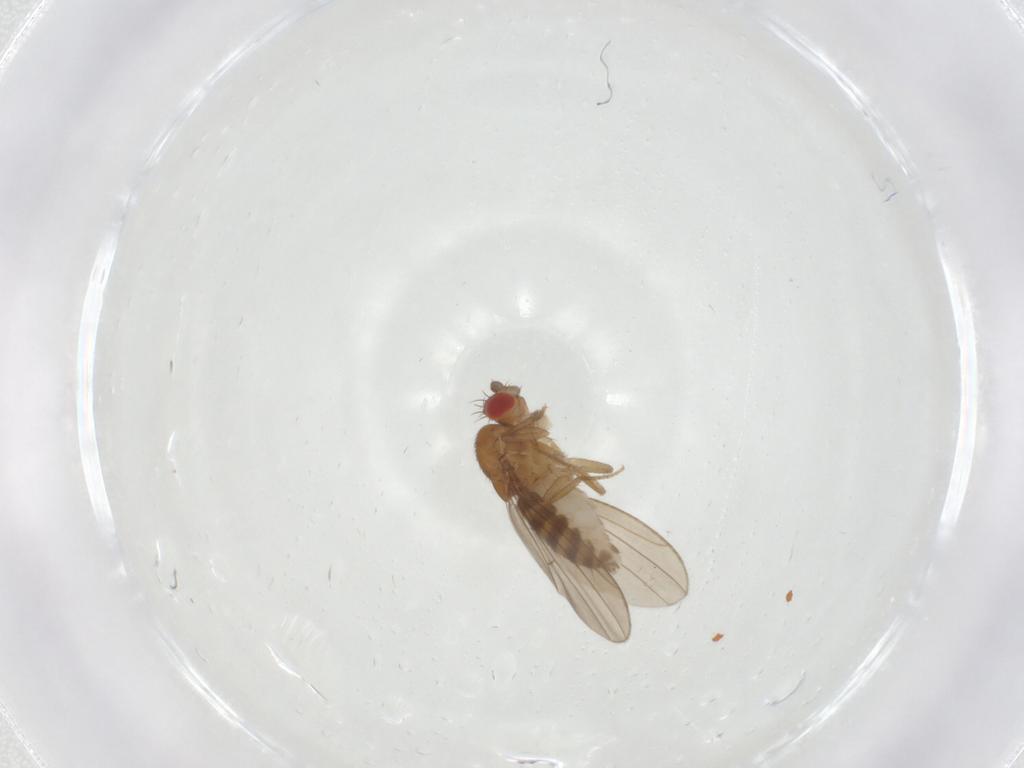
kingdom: Animalia
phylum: Arthropoda
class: Insecta
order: Diptera
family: Drosophilidae
